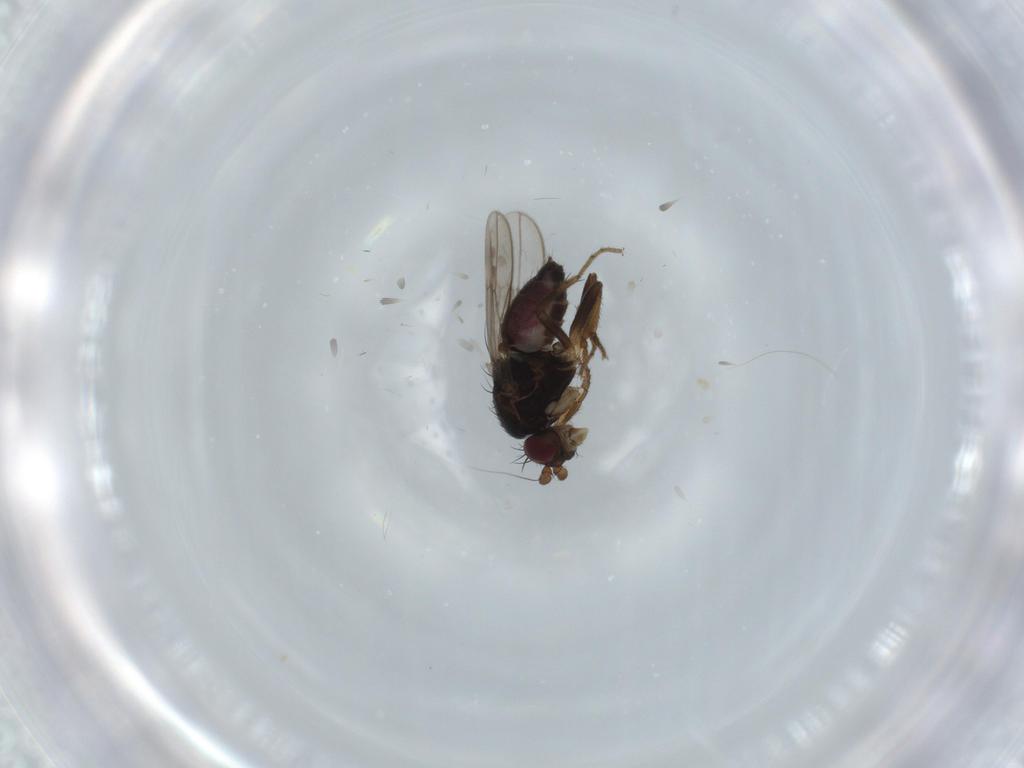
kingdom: Animalia
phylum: Arthropoda
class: Insecta
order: Diptera
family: Sphaeroceridae
